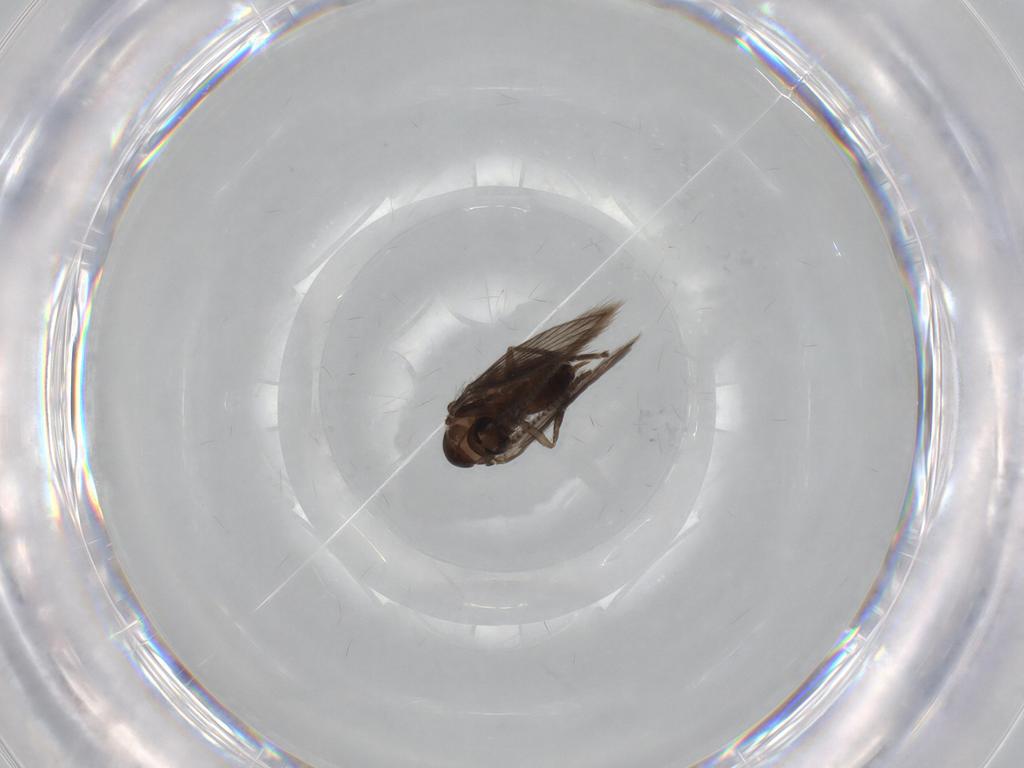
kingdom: Animalia
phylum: Arthropoda
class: Insecta
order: Diptera
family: Psychodidae
